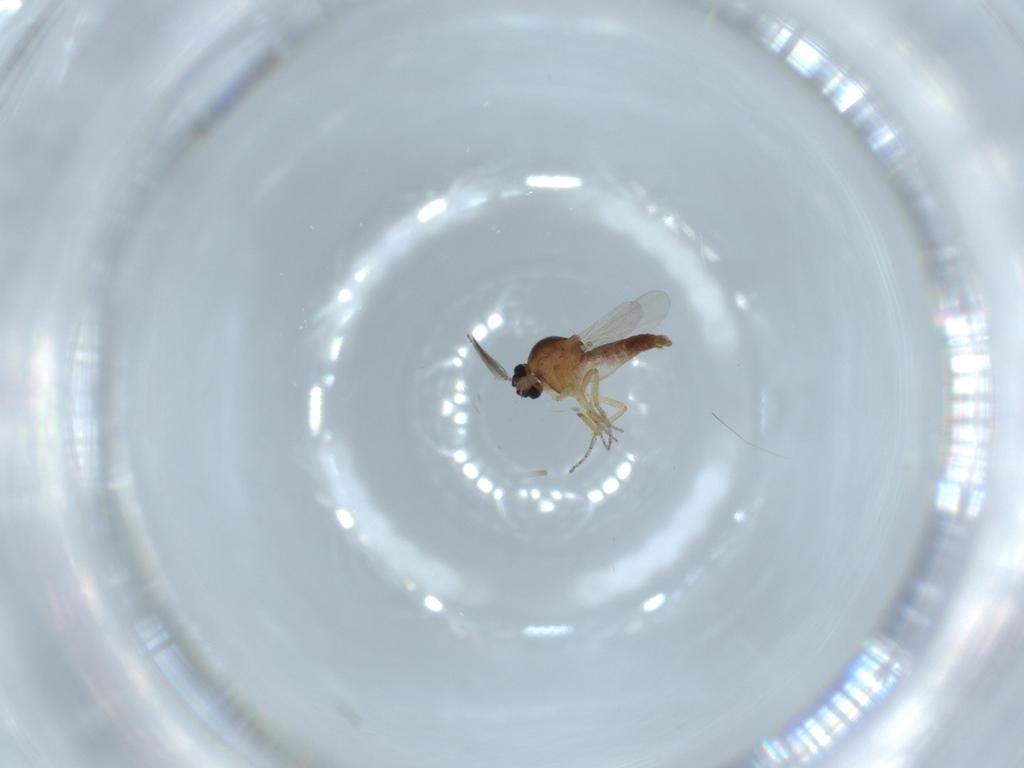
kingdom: Animalia
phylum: Arthropoda
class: Insecta
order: Diptera
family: Ceratopogonidae
